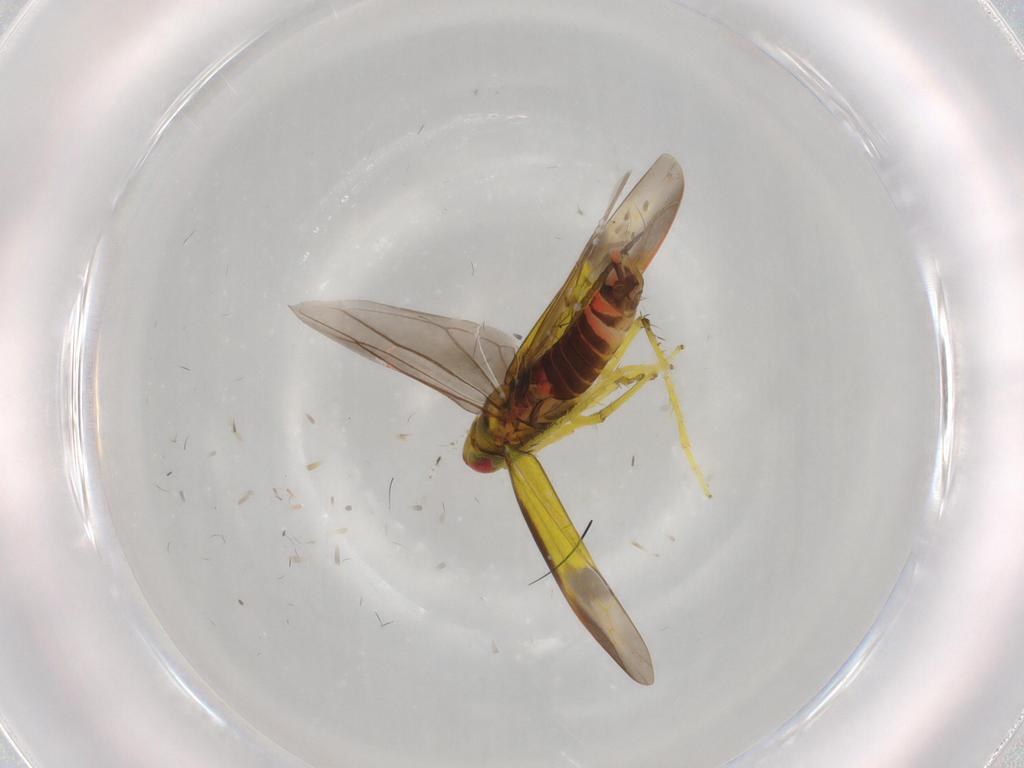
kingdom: Animalia
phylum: Arthropoda
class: Insecta
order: Hemiptera
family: Cicadellidae
